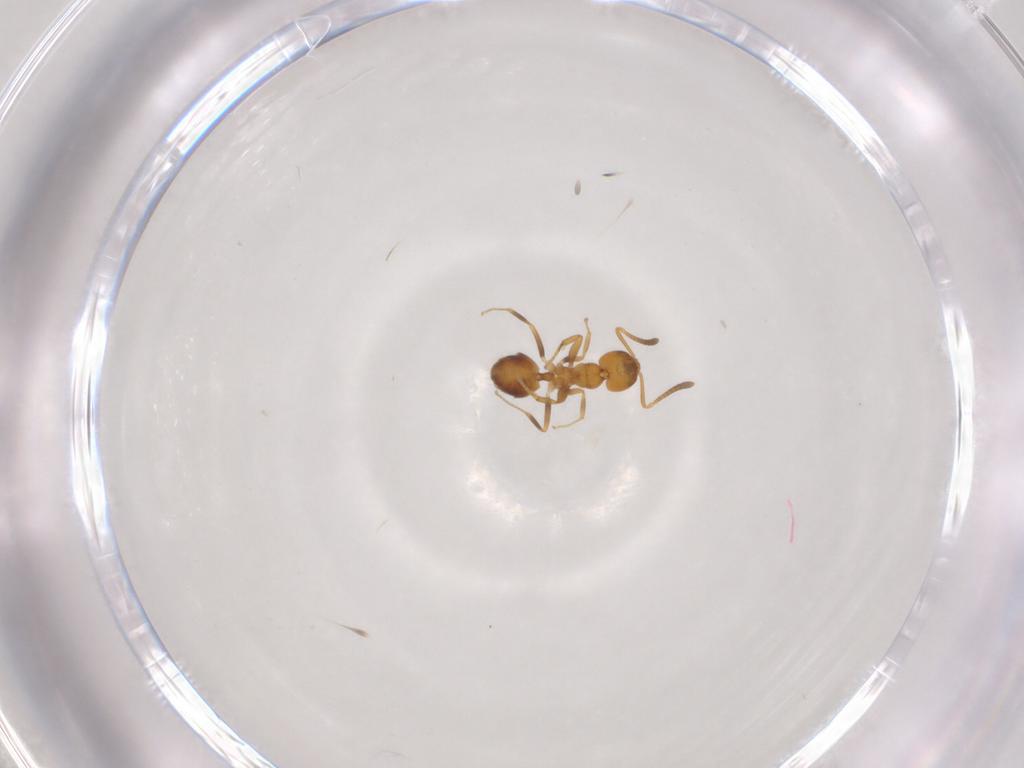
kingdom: Animalia
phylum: Arthropoda
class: Insecta
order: Hymenoptera
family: Formicidae
